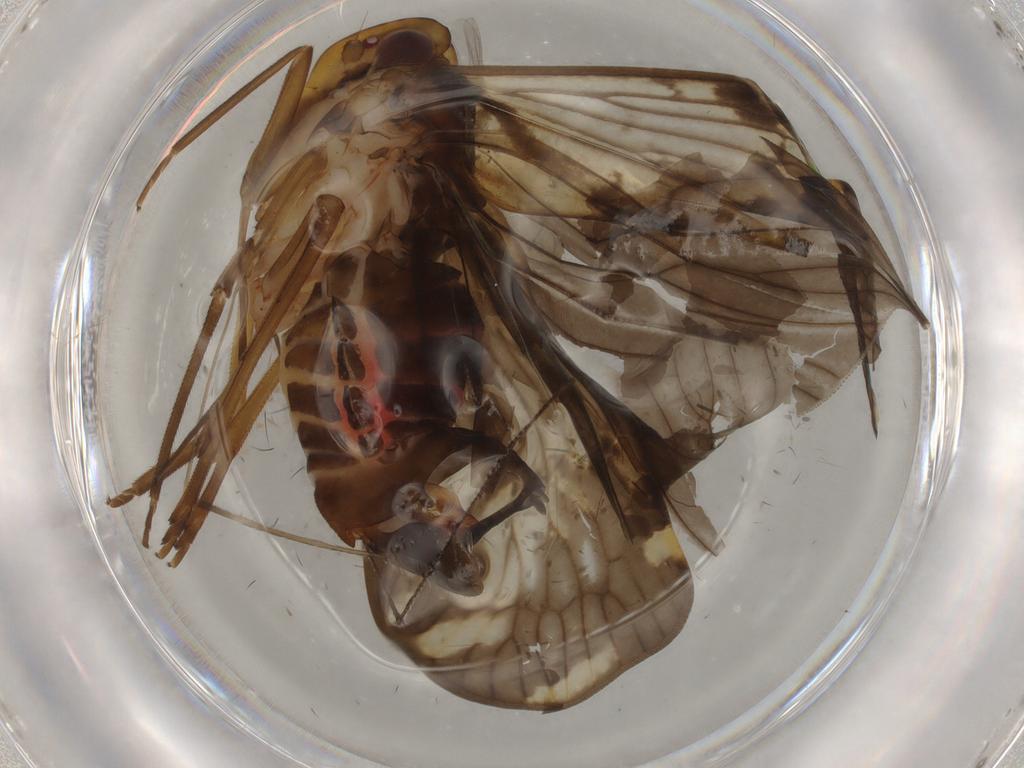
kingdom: Animalia
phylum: Arthropoda
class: Insecta
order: Hemiptera
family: Cixiidae
